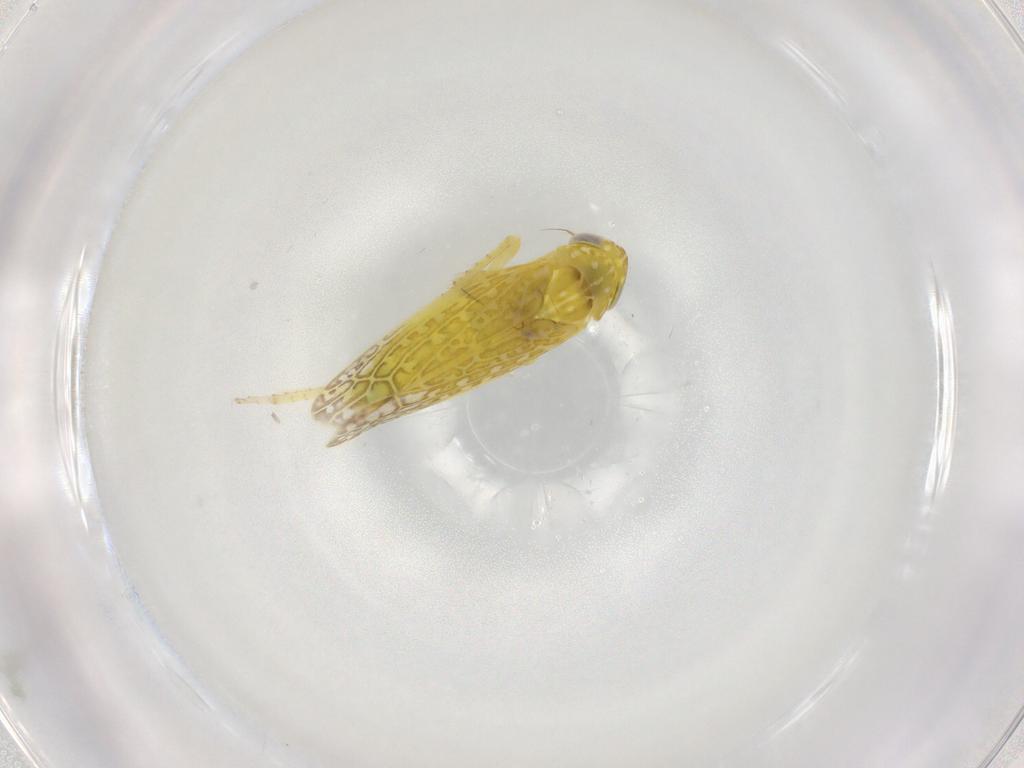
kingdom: Animalia
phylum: Arthropoda
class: Insecta
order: Hemiptera
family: Cicadellidae
